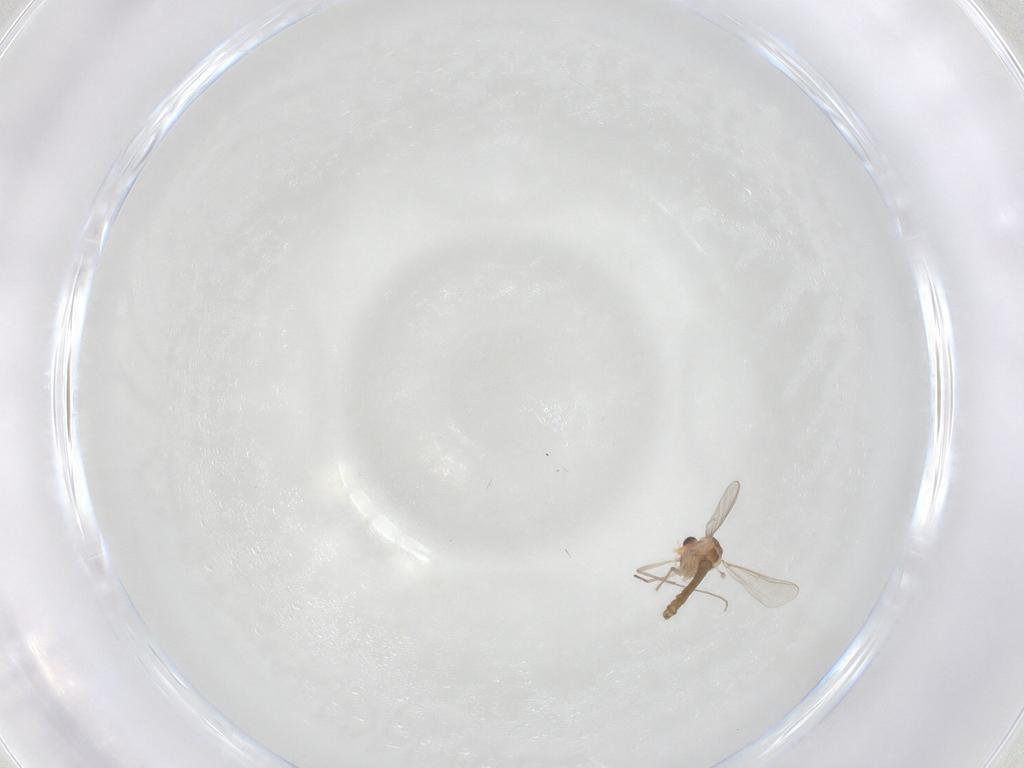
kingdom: Animalia
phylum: Arthropoda
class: Insecta
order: Diptera
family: Chironomidae
